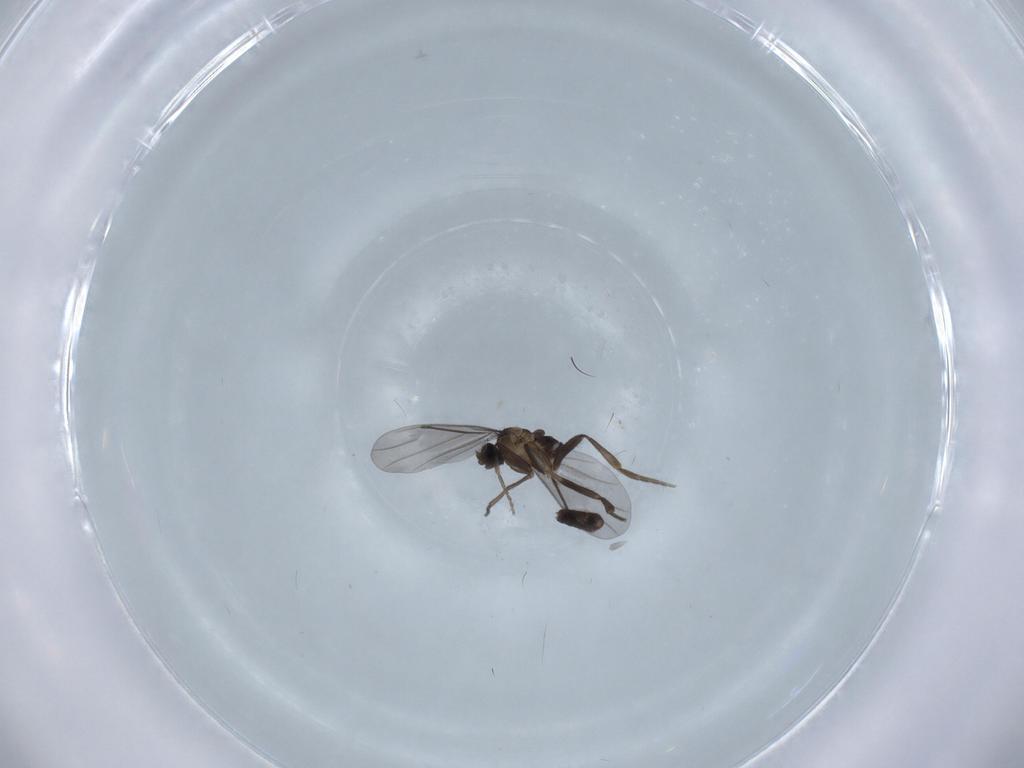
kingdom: Animalia
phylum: Arthropoda
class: Insecta
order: Diptera
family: Phoridae
